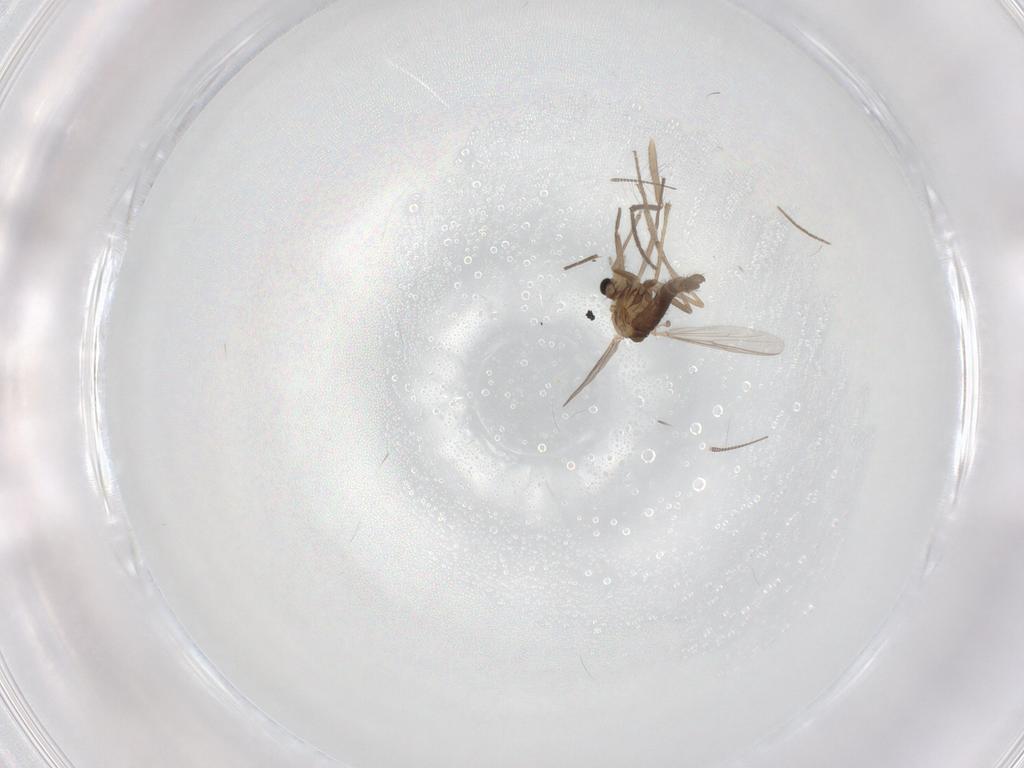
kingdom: Animalia
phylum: Arthropoda
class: Insecta
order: Diptera
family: Chironomidae
